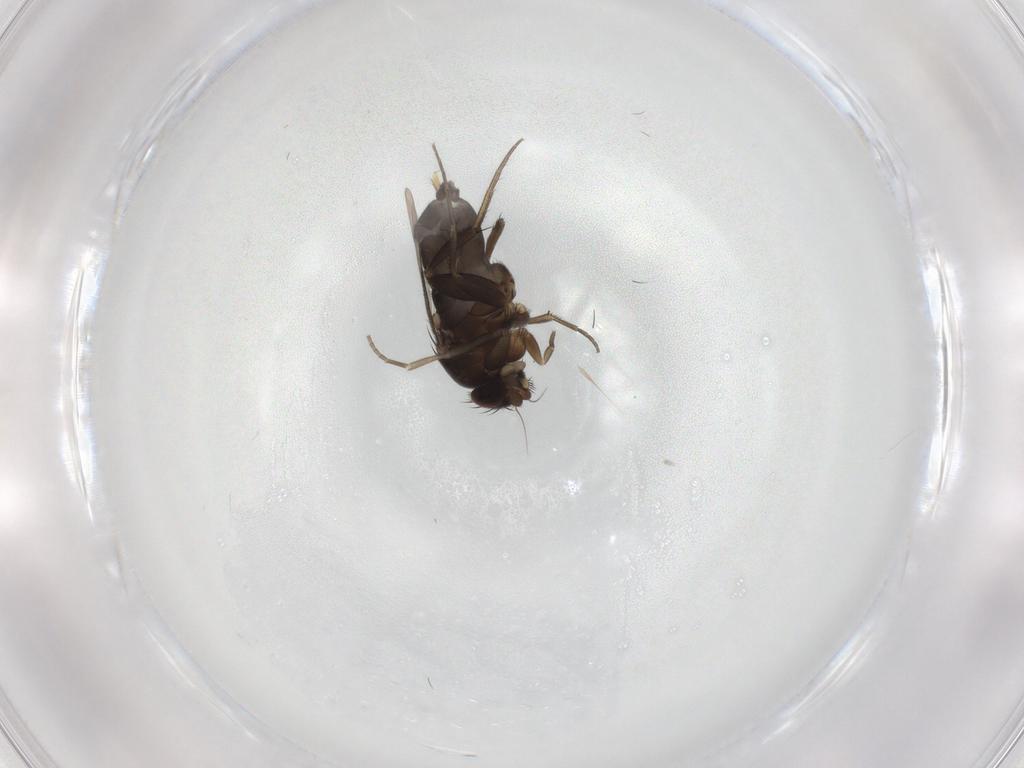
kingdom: Animalia
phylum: Arthropoda
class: Insecta
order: Diptera
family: Phoridae
